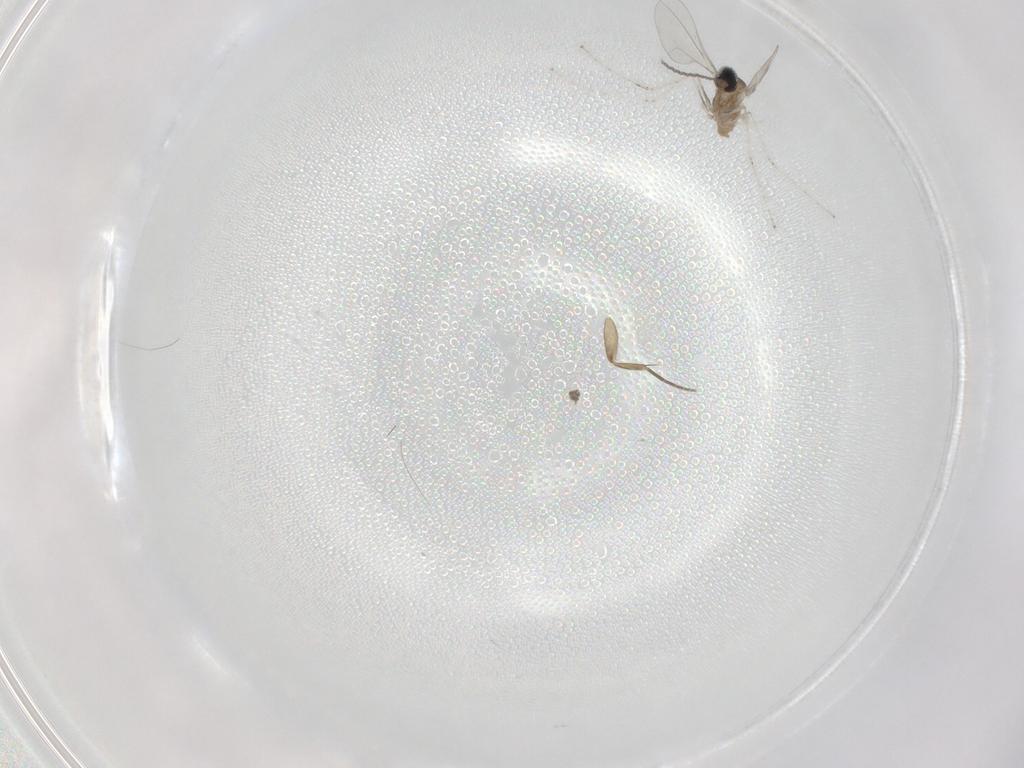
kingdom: Animalia
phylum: Arthropoda
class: Insecta
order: Diptera
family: Cecidomyiidae
